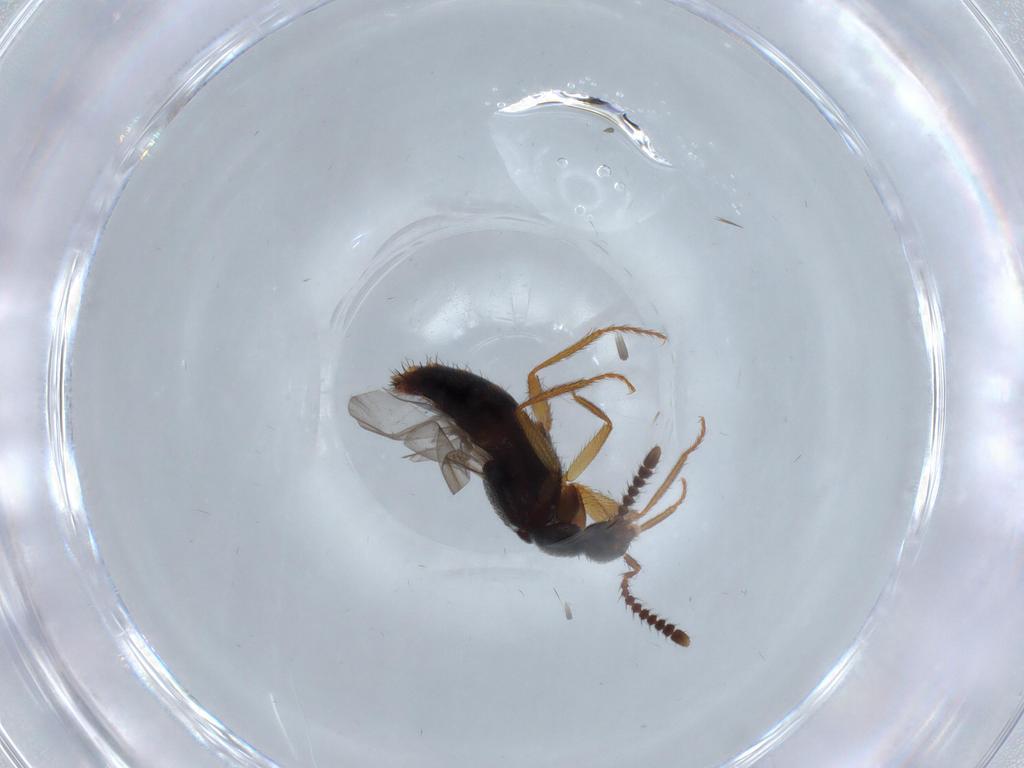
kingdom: Animalia
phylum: Arthropoda
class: Insecta
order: Coleoptera
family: Staphylinidae
